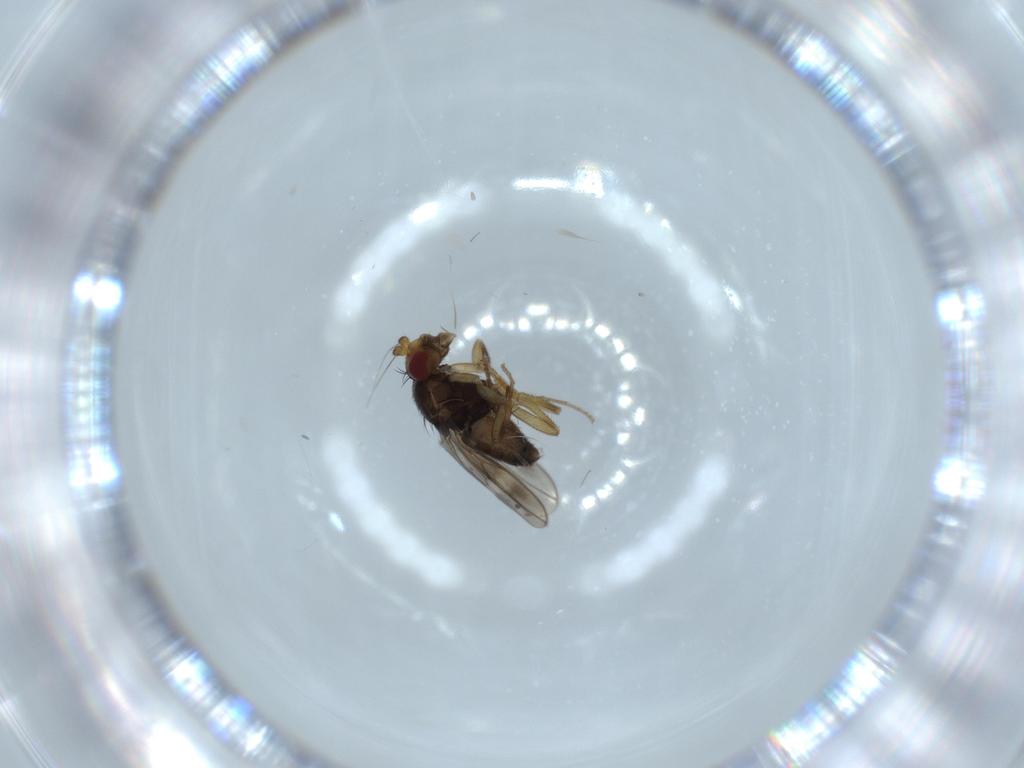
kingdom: Animalia
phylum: Arthropoda
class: Insecta
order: Diptera
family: Sphaeroceridae
